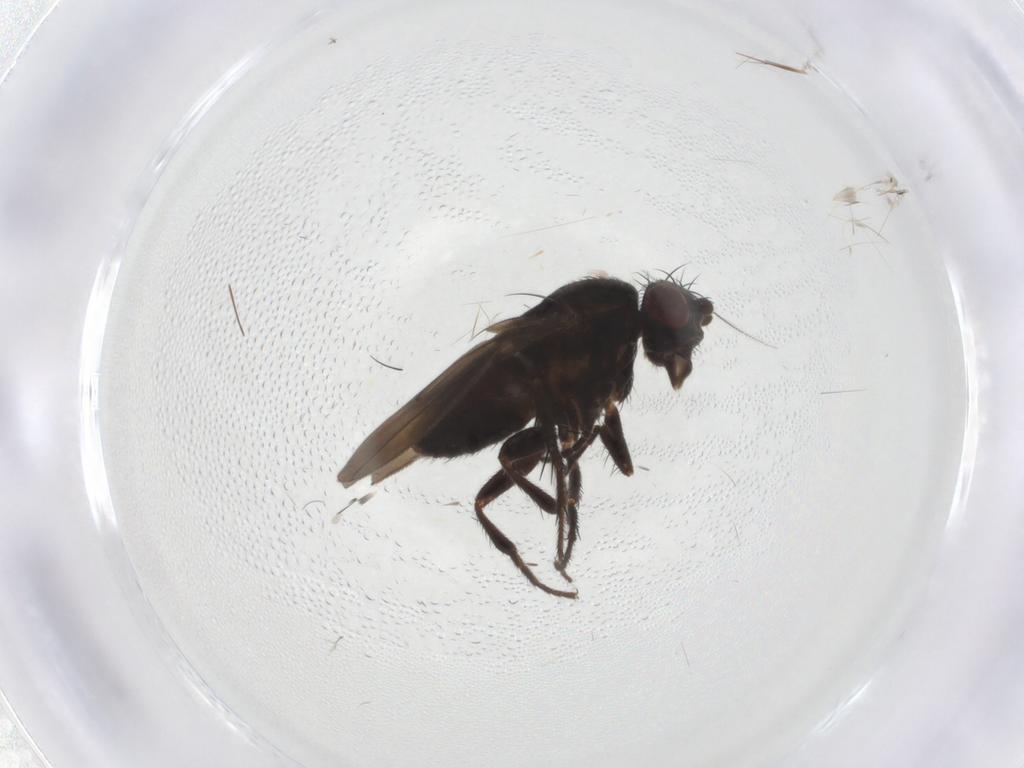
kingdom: Animalia
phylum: Arthropoda
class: Insecta
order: Diptera
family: Sphaeroceridae
